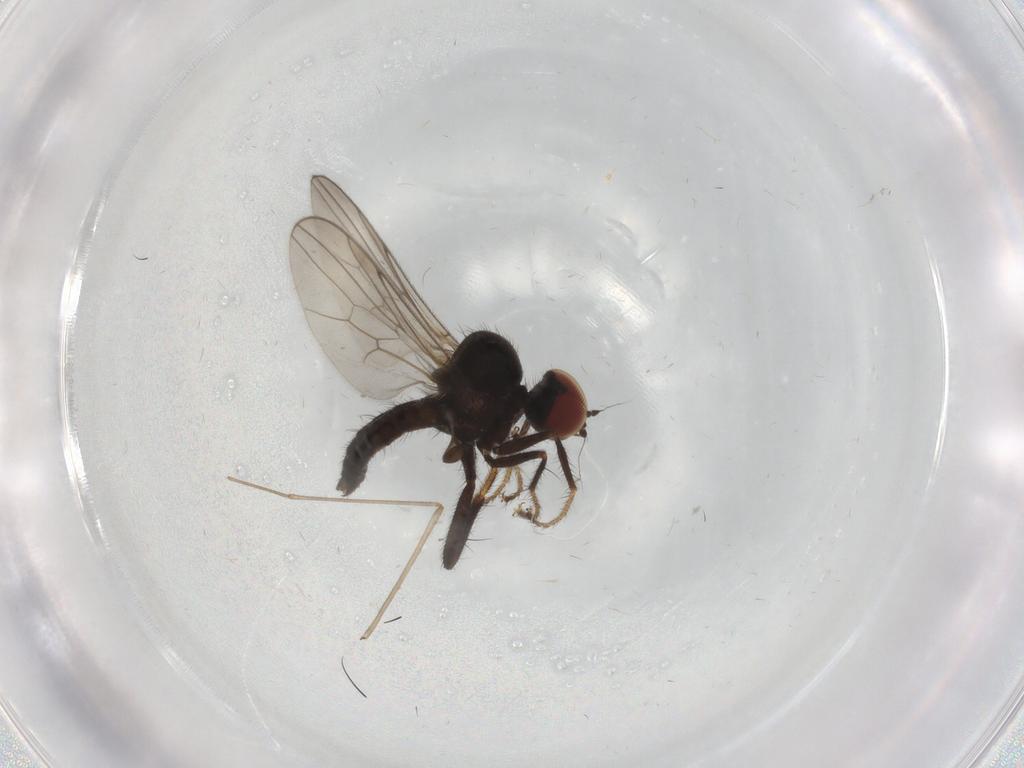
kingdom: Animalia
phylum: Arthropoda
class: Insecta
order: Diptera
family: Hybotidae
